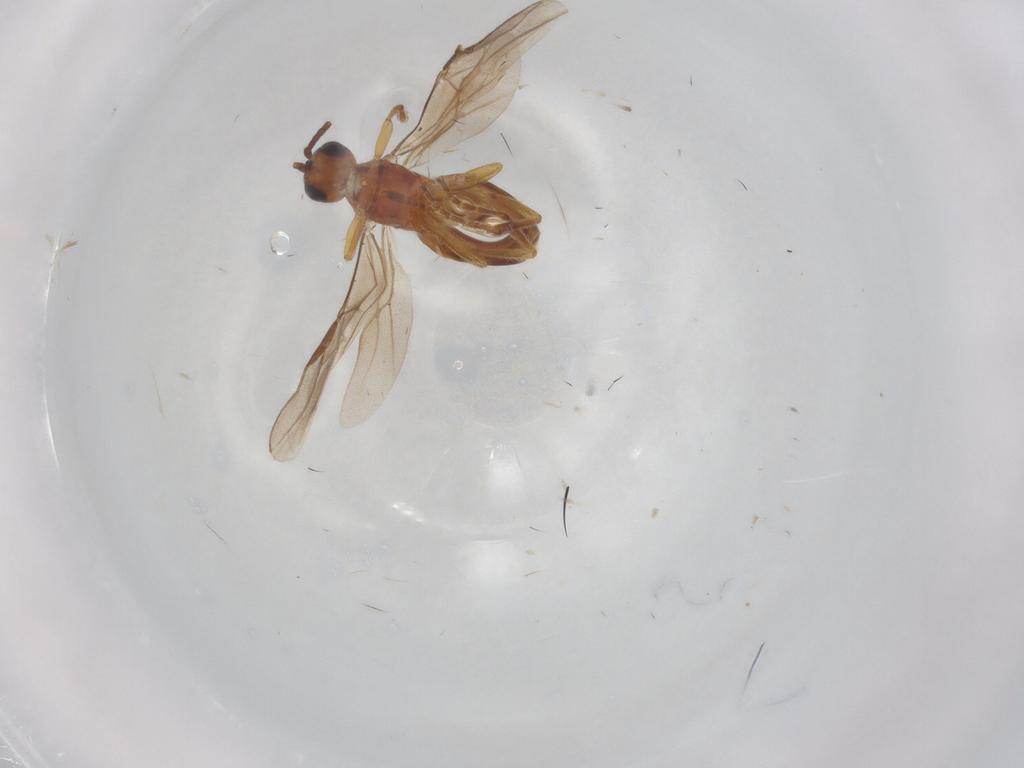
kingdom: Animalia
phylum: Arthropoda
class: Insecta
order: Hymenoptera
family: Braconidae
